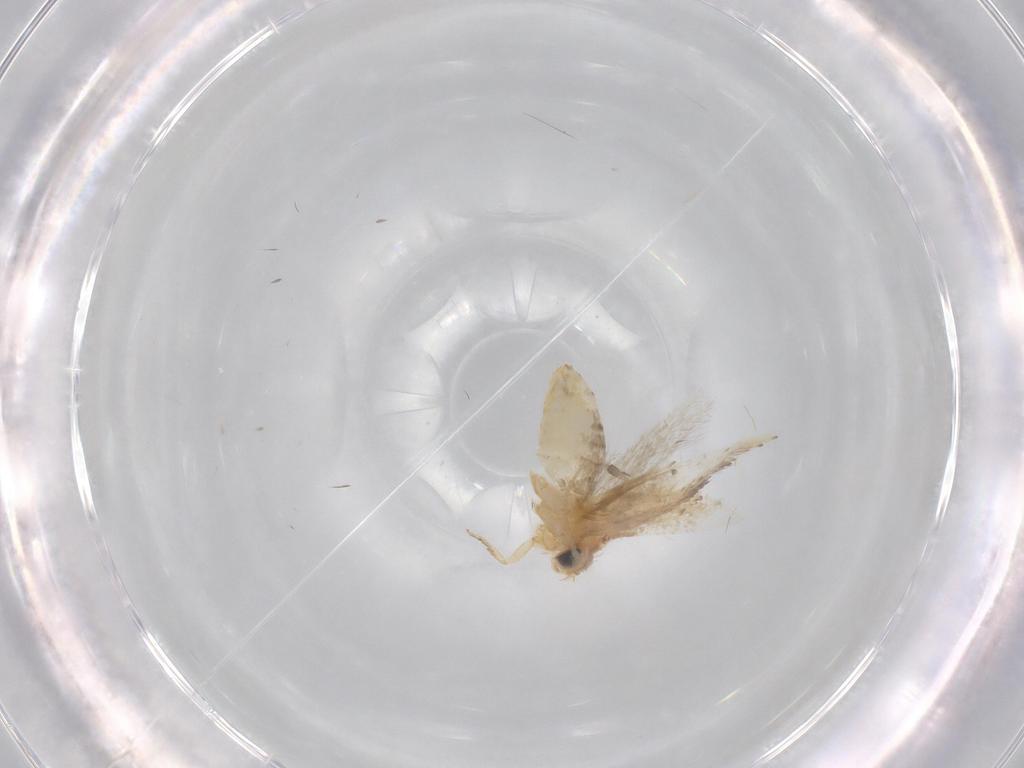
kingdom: Animalia
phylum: Arthropoda
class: Insecta
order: Lepidoptera
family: Nepticulidae
